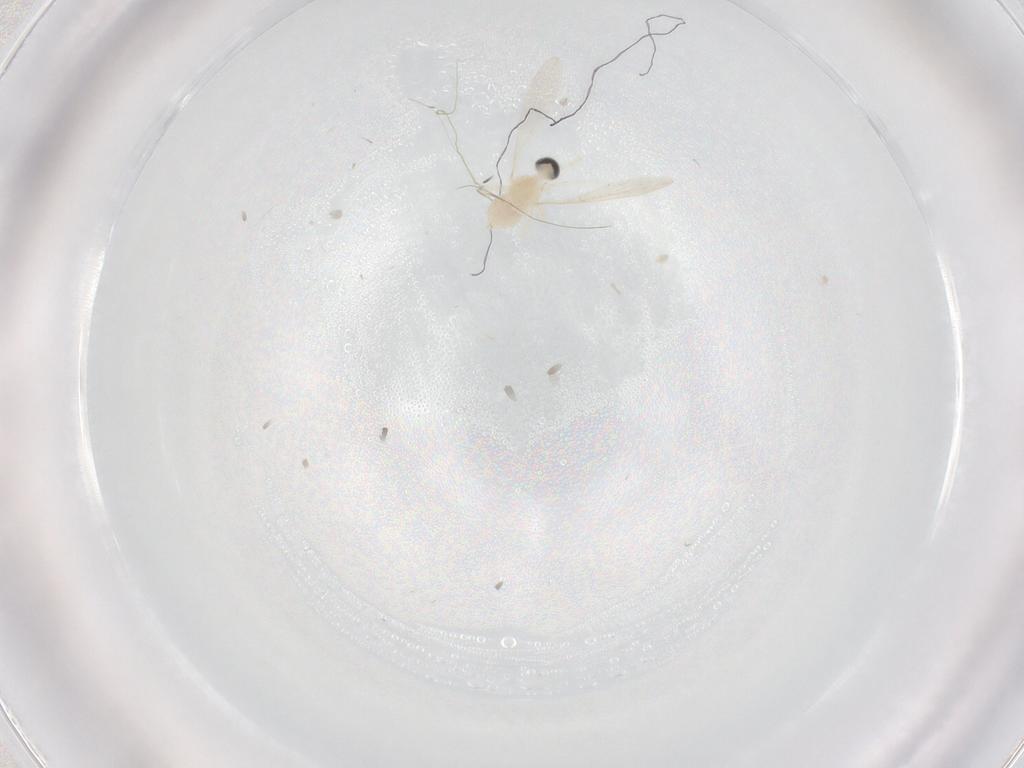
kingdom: Animalia
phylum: Arthropoda
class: Insecta
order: Diptera
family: Cecidomyiidae
